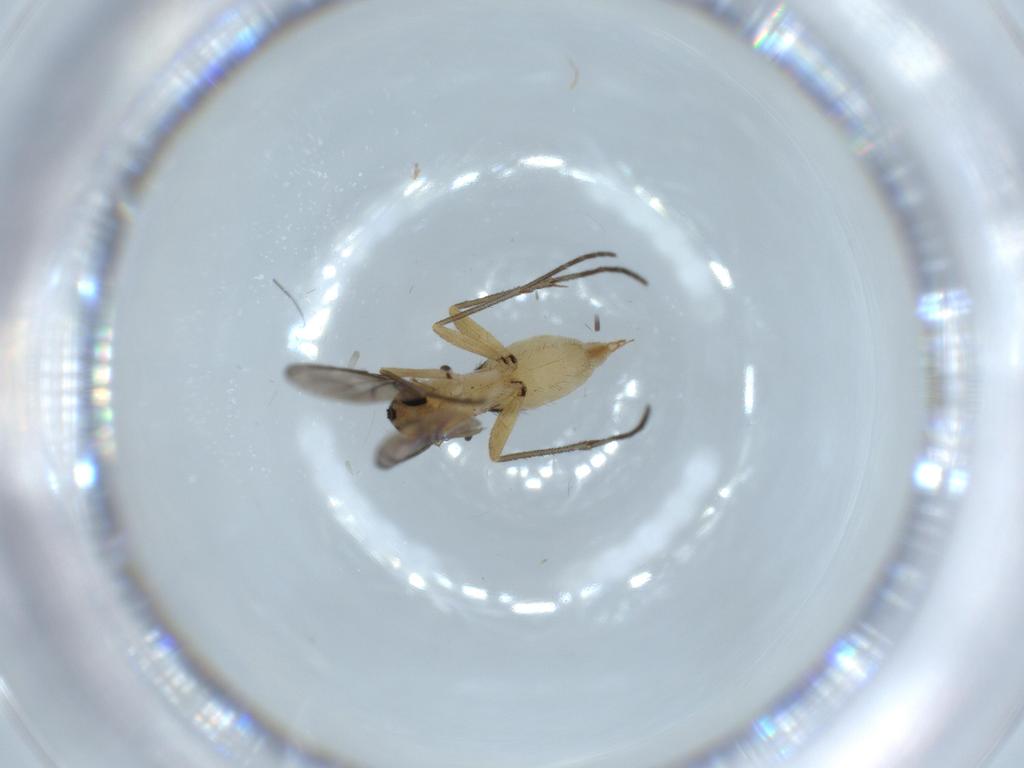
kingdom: Animalia
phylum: Arthropoda
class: Insecta
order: Diptera
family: Sciaridae
